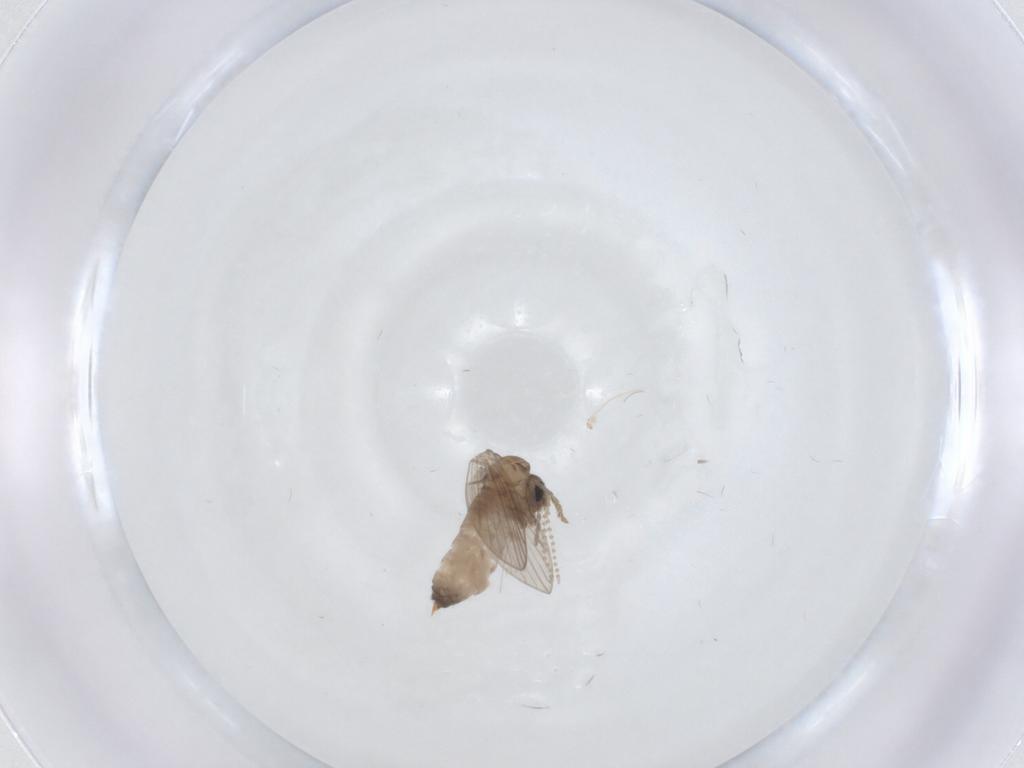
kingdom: Animalia
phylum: Arthropoda
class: Insecta
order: Diptera
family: Psychodidae
